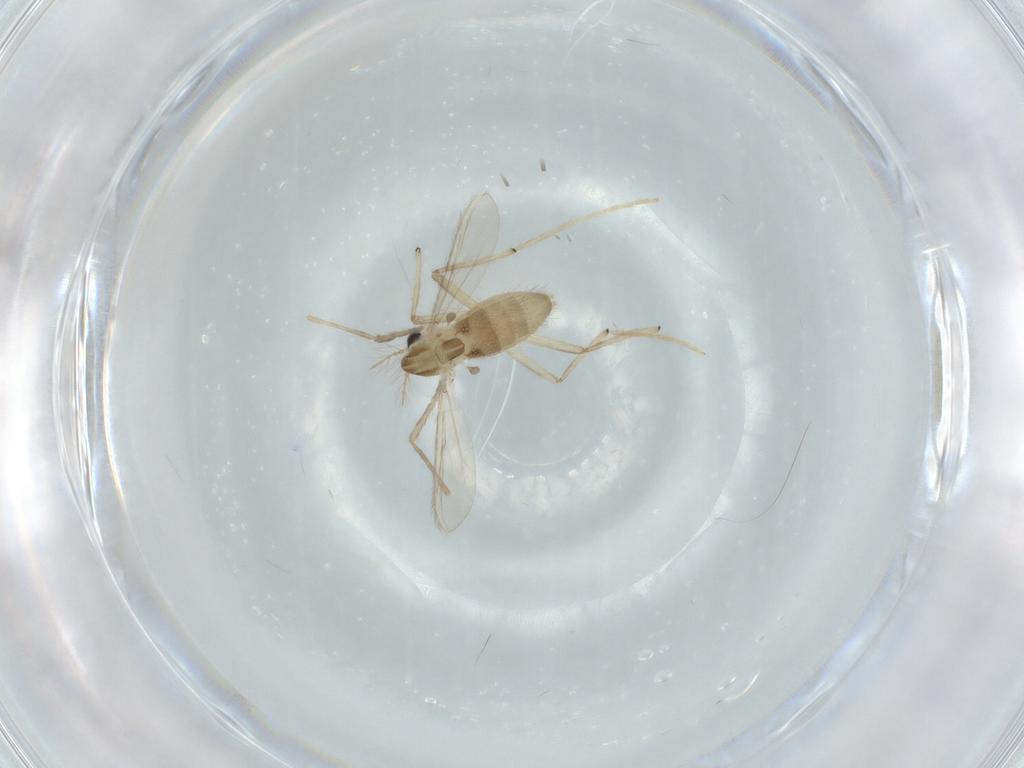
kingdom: Animalia
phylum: Arthropoda
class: Insecta
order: Diptera
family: Chironomidae
